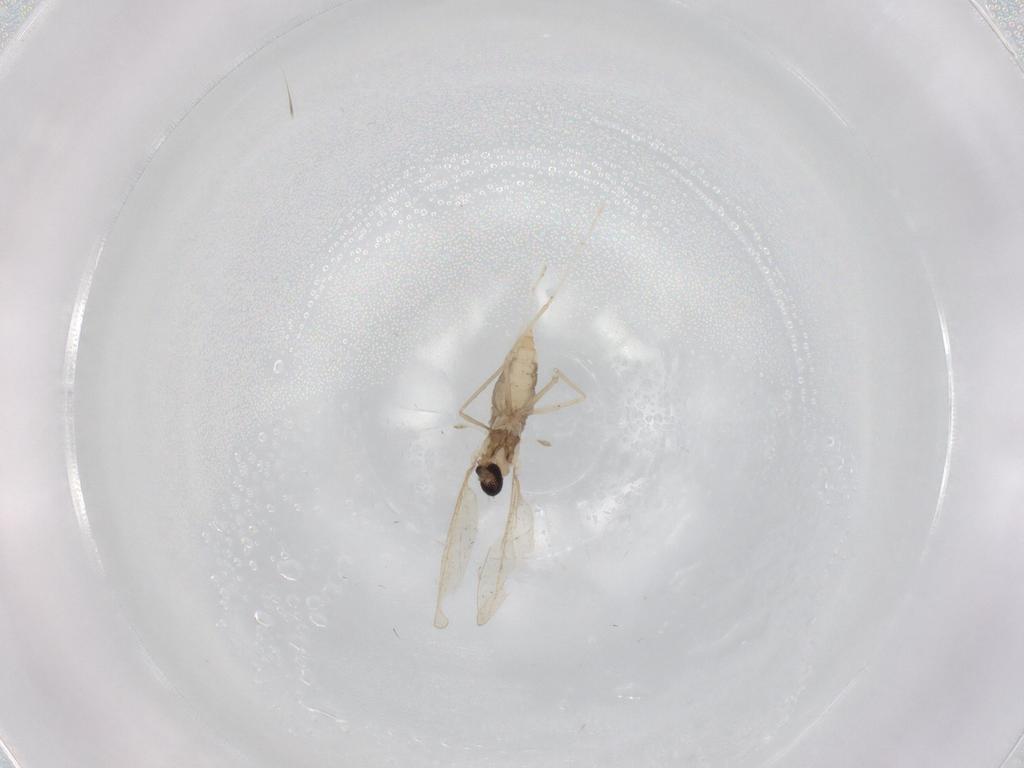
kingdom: Animalia
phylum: Arthropoda
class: Insecta
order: Diptera
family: Cecidomyiidae
